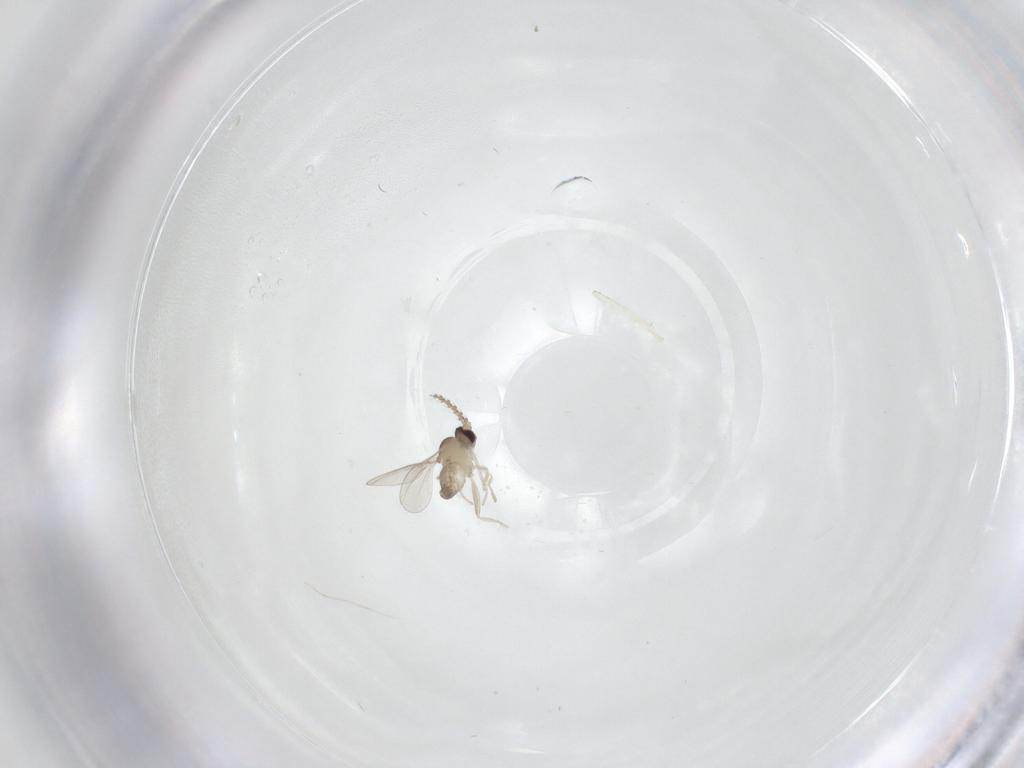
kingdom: Animalia
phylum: Arthropoda
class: Insecta
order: Diptera
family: Cecidomyiidae
